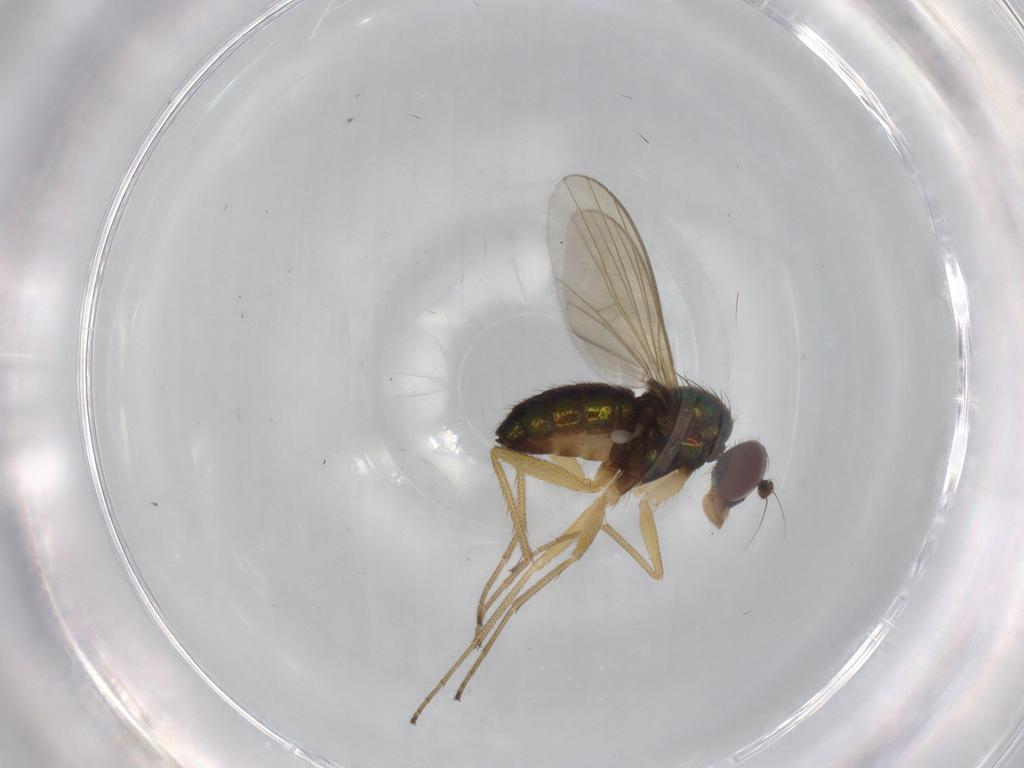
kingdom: Animalia
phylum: Arthropoda
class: Insecta
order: Diptera
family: Dolichopodidae
